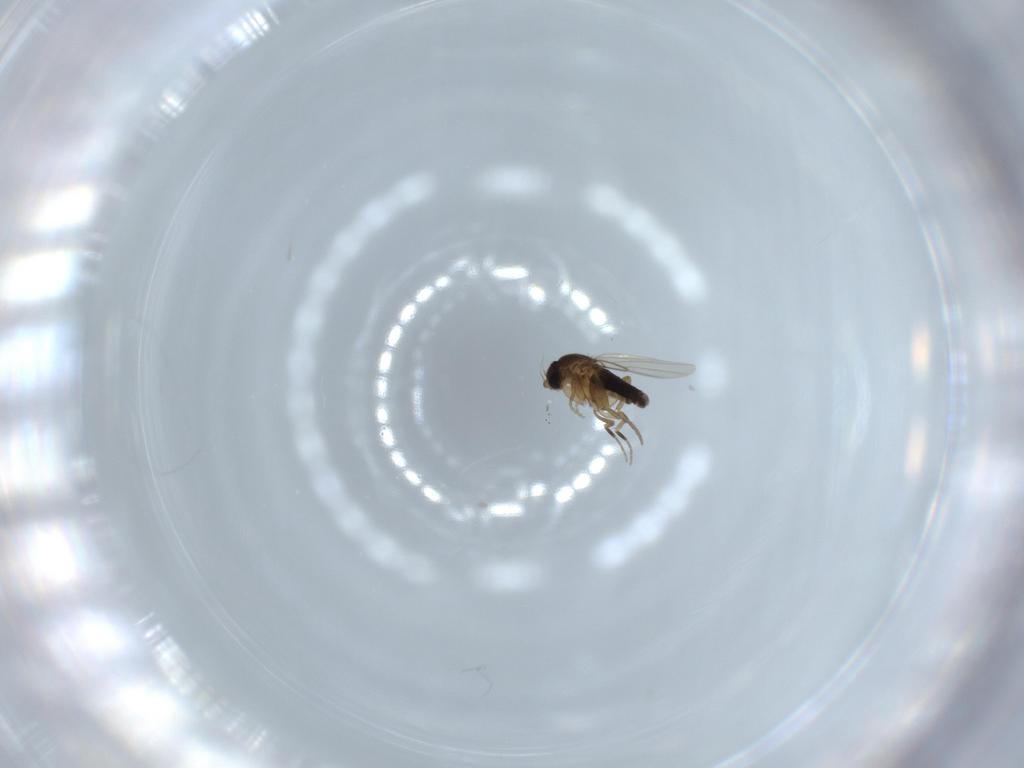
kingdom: Animalia
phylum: Arthropoda
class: Insecta
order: Diptera
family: Phoridae
